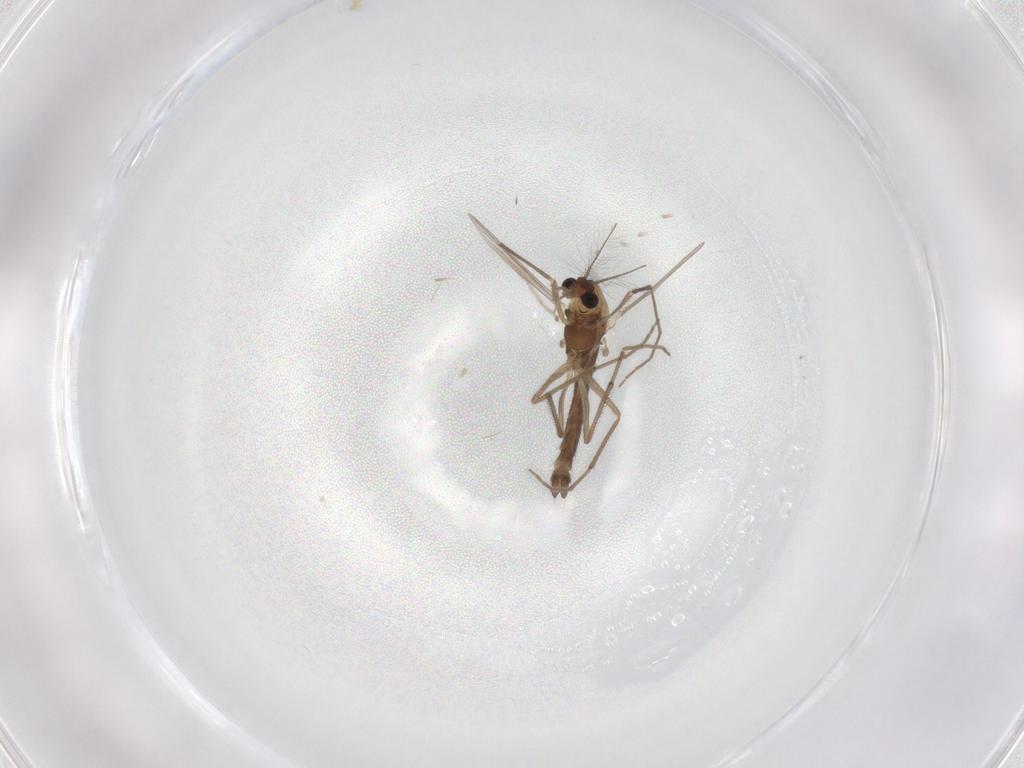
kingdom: Animalia
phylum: Arthropoda
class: Insecta
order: Diptera
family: Chironomidae
